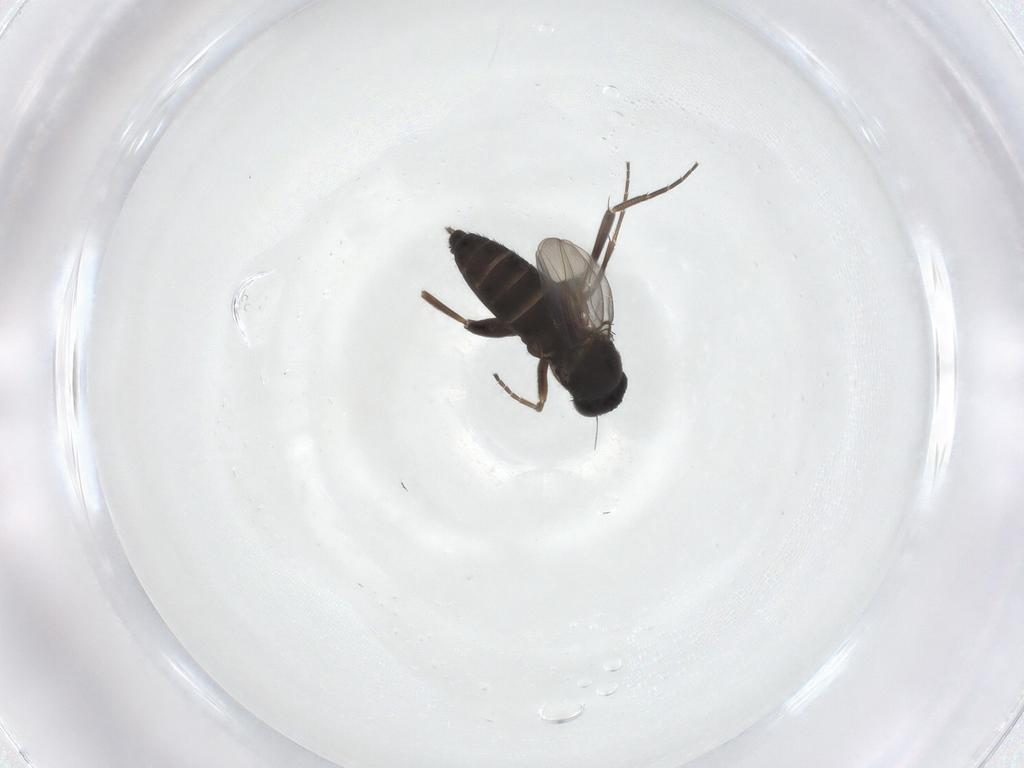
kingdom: Animalia
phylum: Arthropoda
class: Insecta
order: Diptera
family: Phoridae
